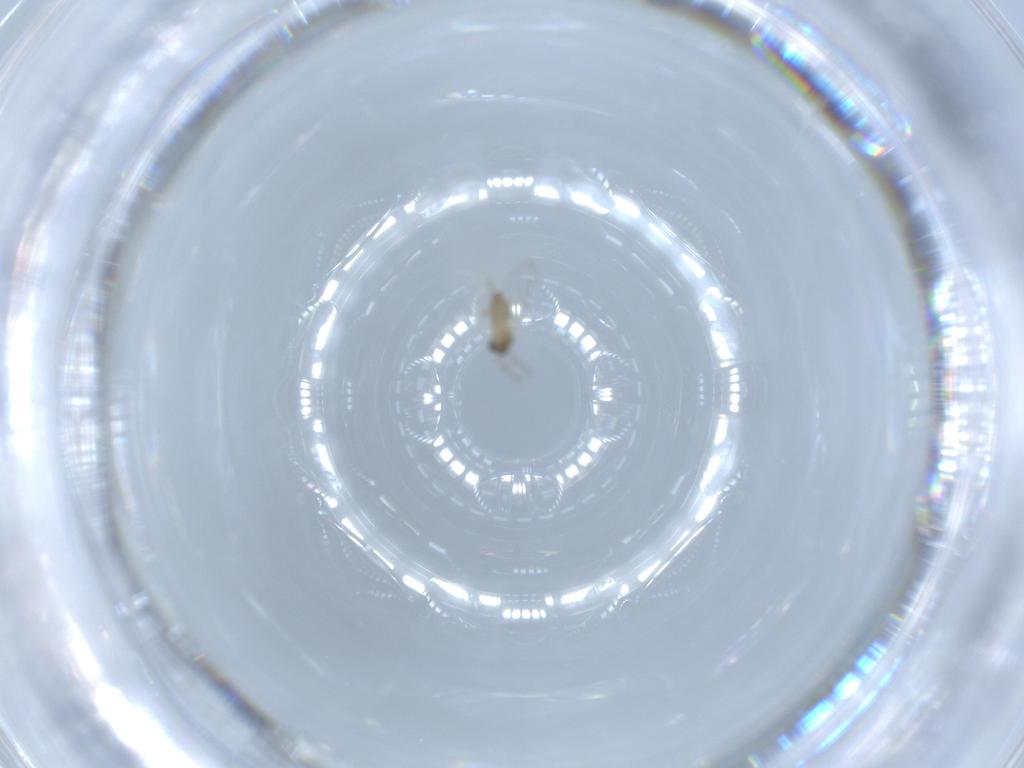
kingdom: Animalia
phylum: Arthropoda
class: Insecta
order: Diptera
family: Cecidomyiidae
